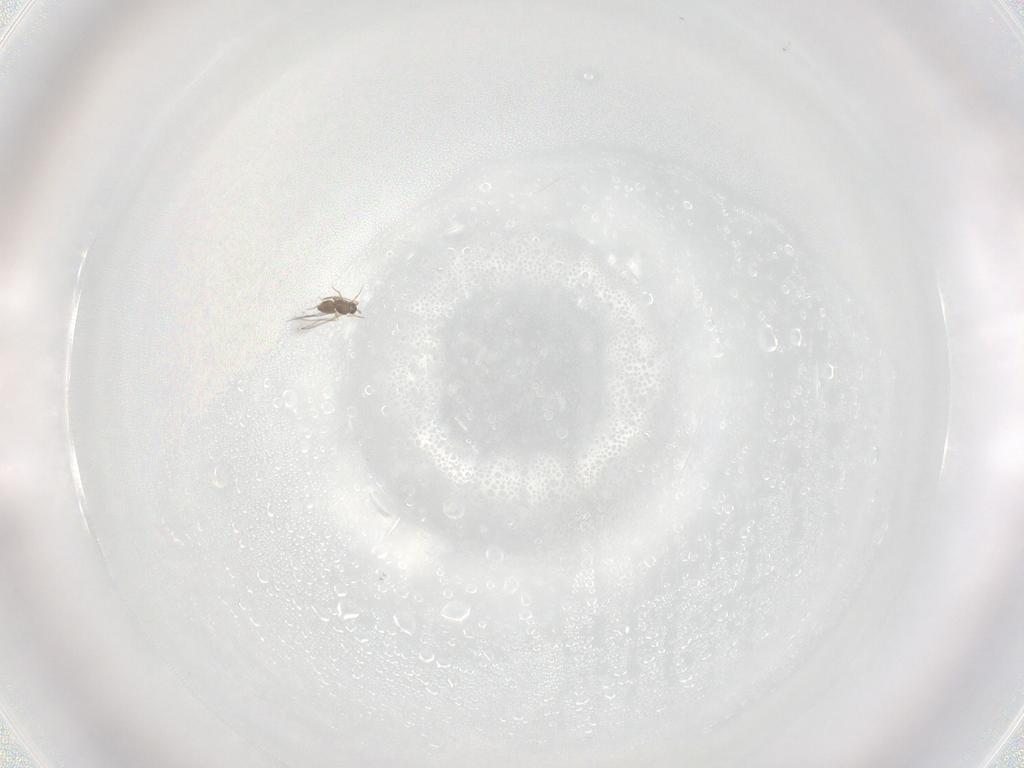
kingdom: Animalia
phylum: Arthropoda
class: Insecta
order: Hymenoptera
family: Mymaridae
